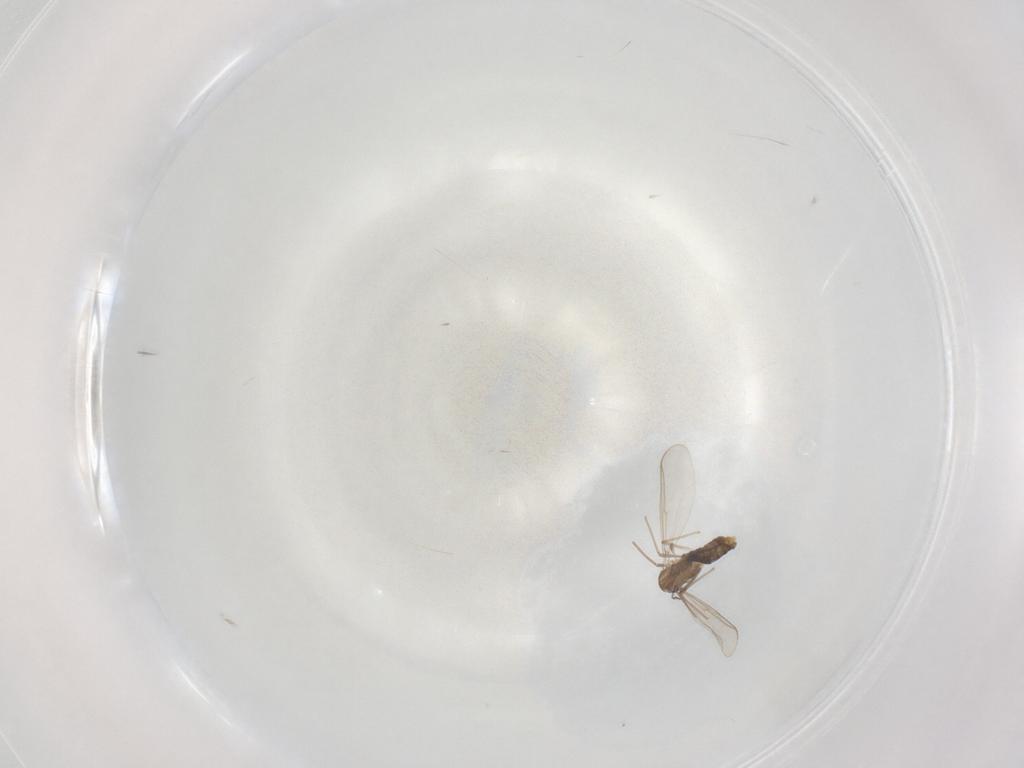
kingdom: Animalia
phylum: Arthropoda
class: Insecta
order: Diptera
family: Chironomidae
